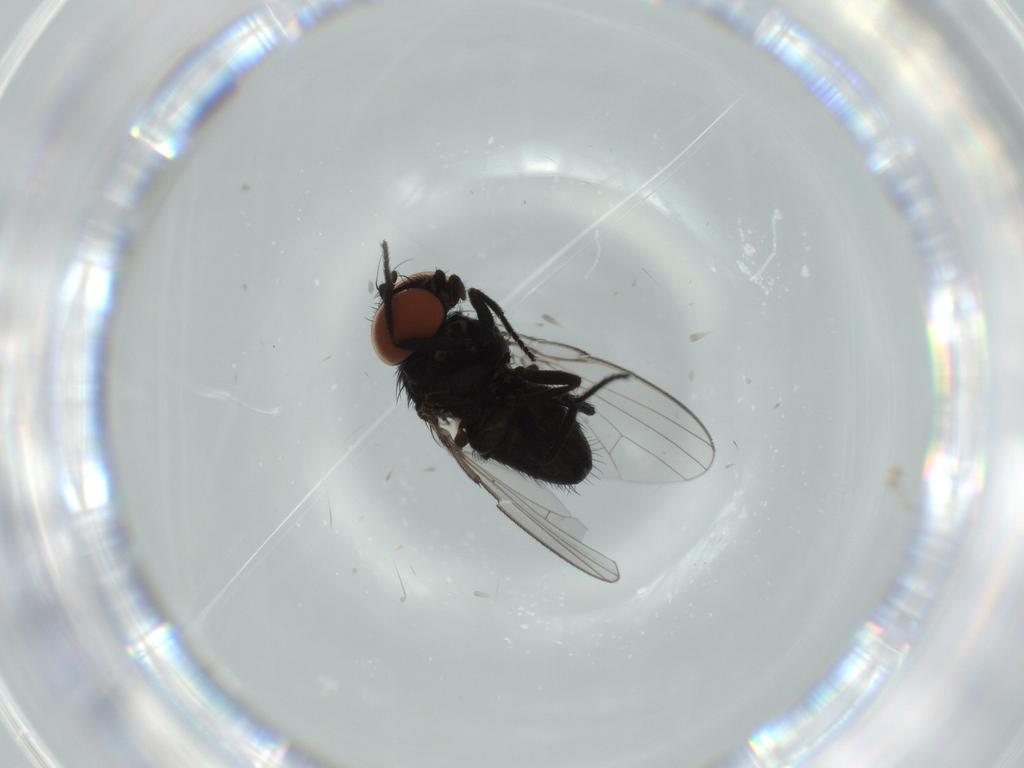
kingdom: Animalia
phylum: Arthropoda
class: Insecta
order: Diptera
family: Milichiidae
